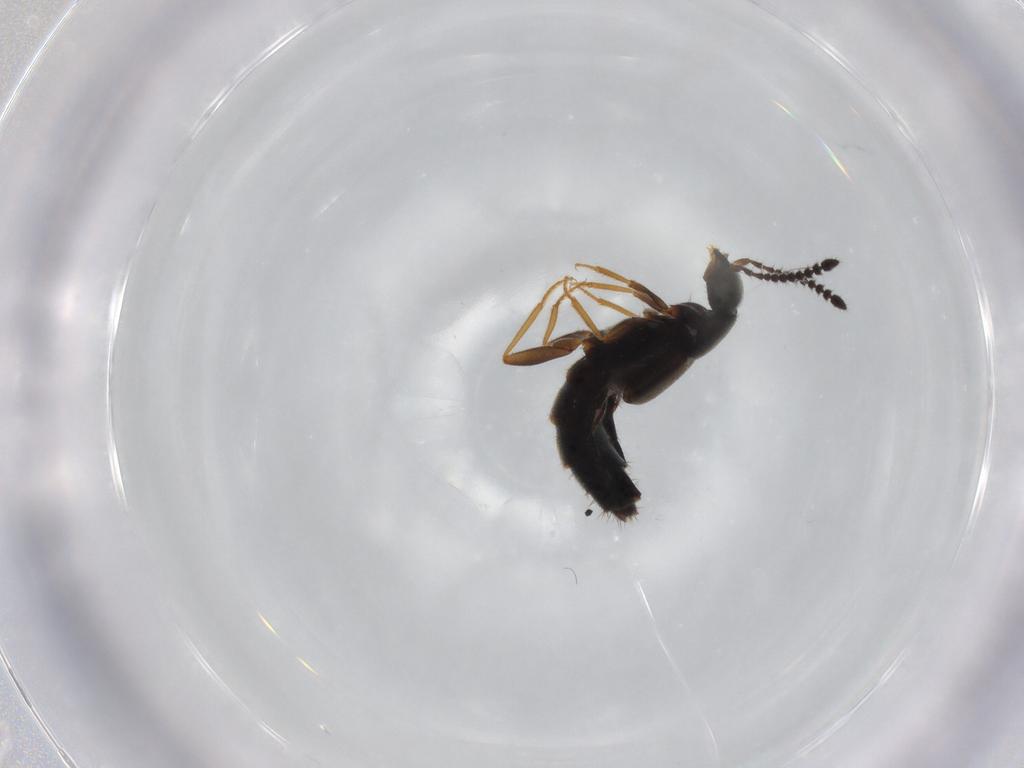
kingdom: Animalia
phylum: Arthropoda
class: Insecta
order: Coleoptera
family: Staphylinidae
